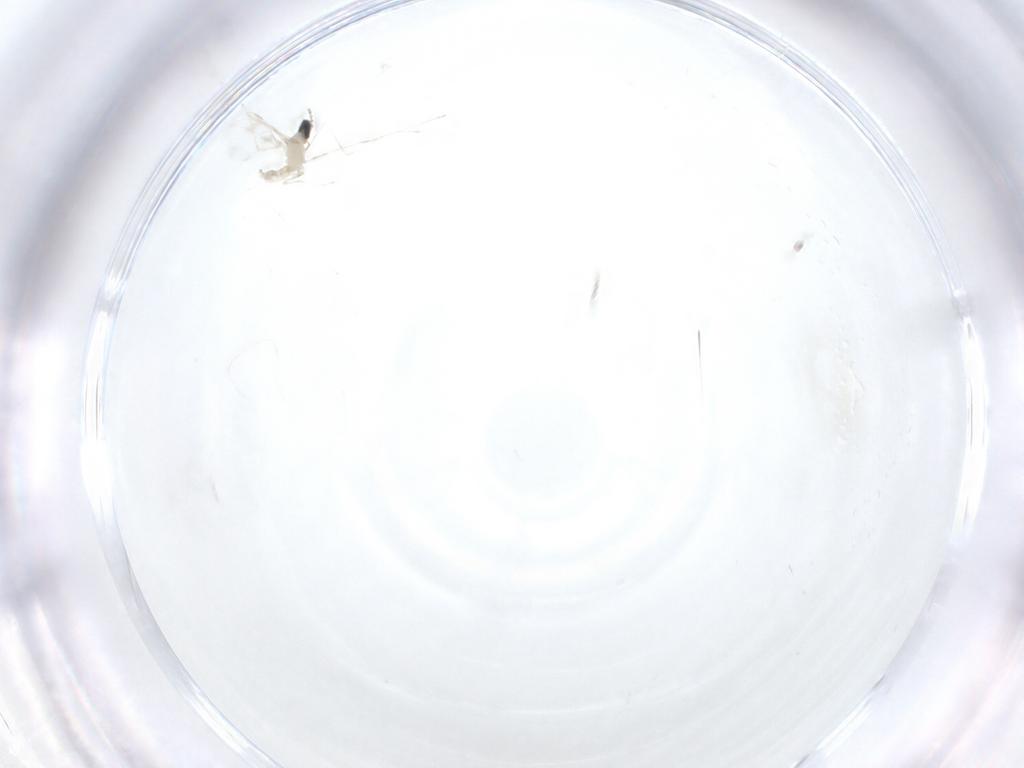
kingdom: Animalia
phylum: Arthropoda
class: Insecta
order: Diptera
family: Cecidomyiidae
